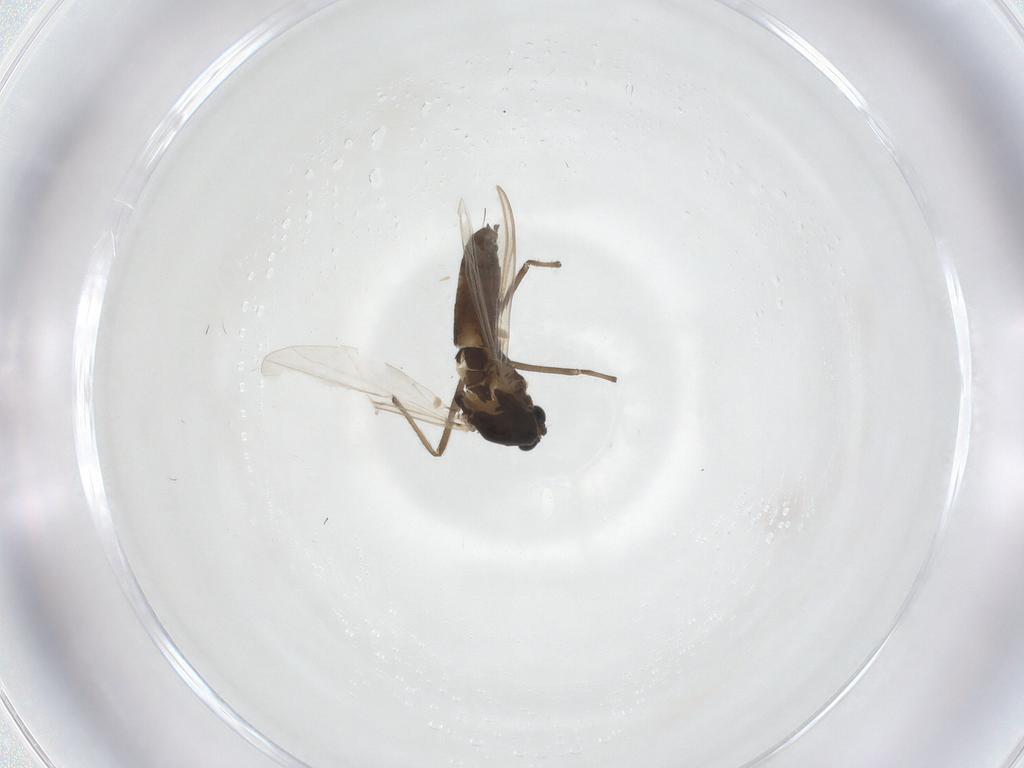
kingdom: Animalia
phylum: Arthropoda
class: Insecta
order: Diptera
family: Chironomidae
